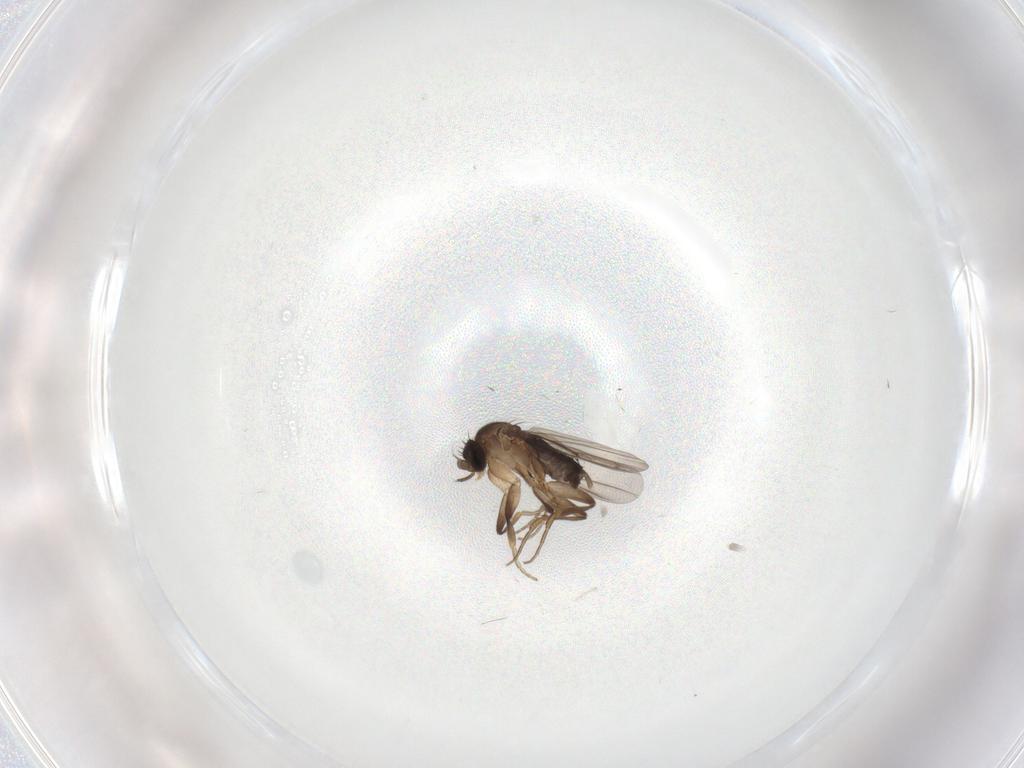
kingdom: Animalia
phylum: Arthropoda
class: Insecta
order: Diptera
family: Phoridae
